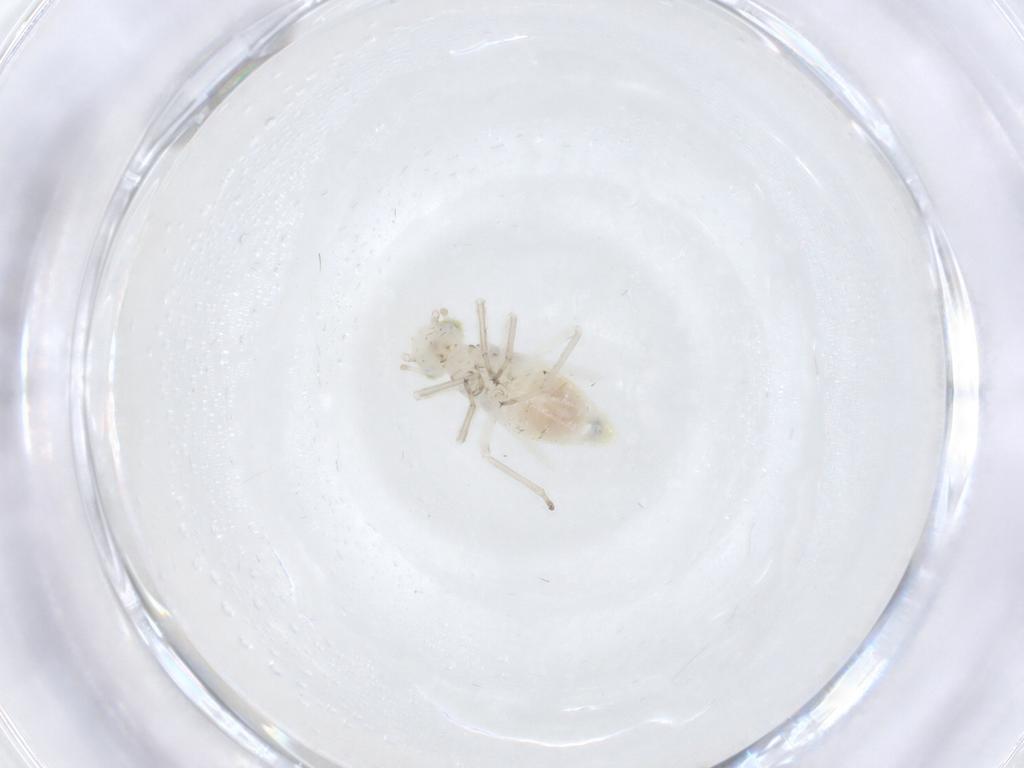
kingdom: Animalia
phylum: Arthropoda
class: Insecta
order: Psocodea
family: Caeciliusidae
